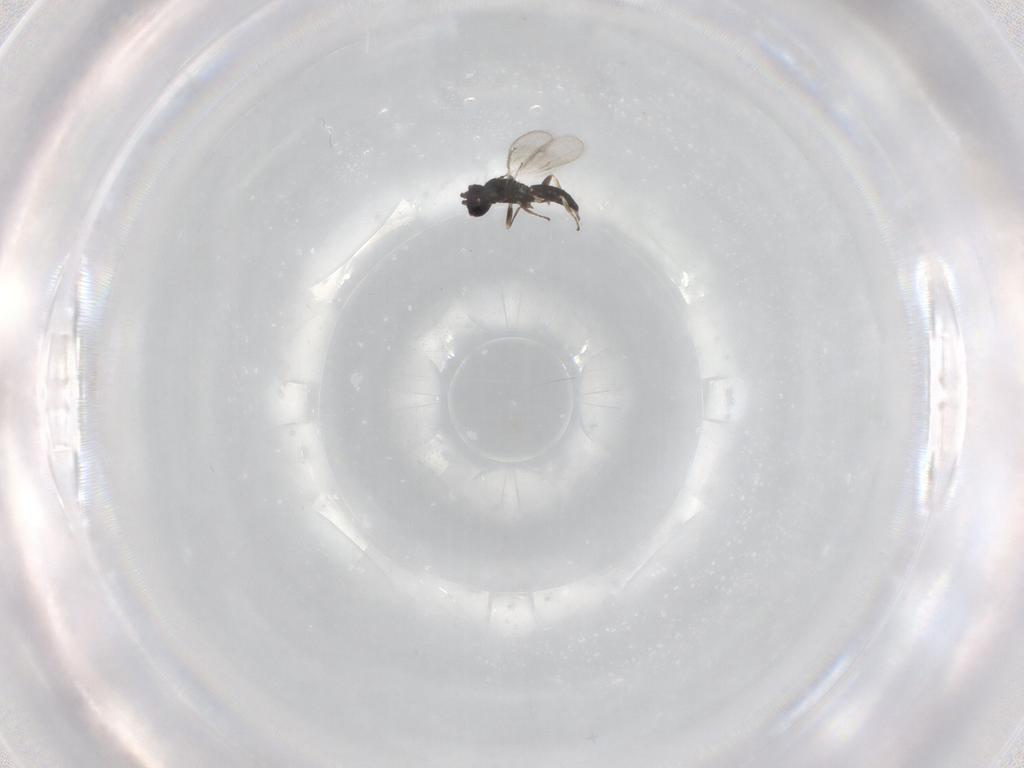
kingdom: Animalia
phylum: Arthropoda
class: Insecta
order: Hymenoptera
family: Eulophidae
